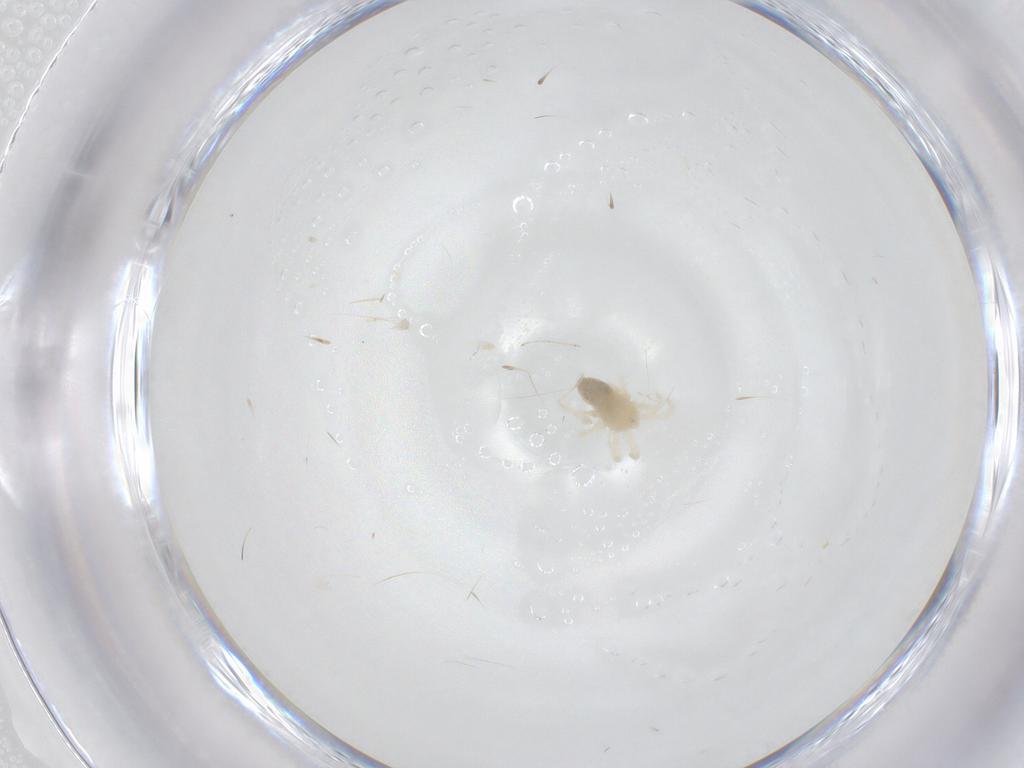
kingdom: Animalia
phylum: Arthropoda
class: Arachnida
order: Trombidiformes
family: Anystidae
